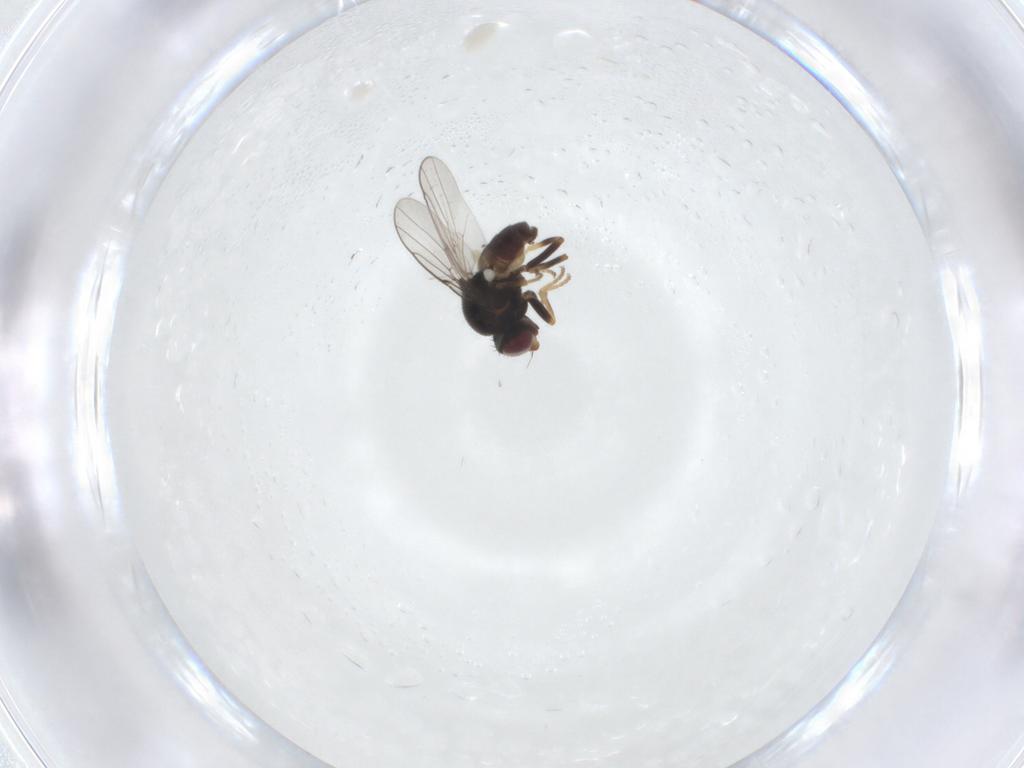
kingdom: Animalia
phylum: Arthropoda
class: Insecta
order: Diptera
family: Chloropidae
